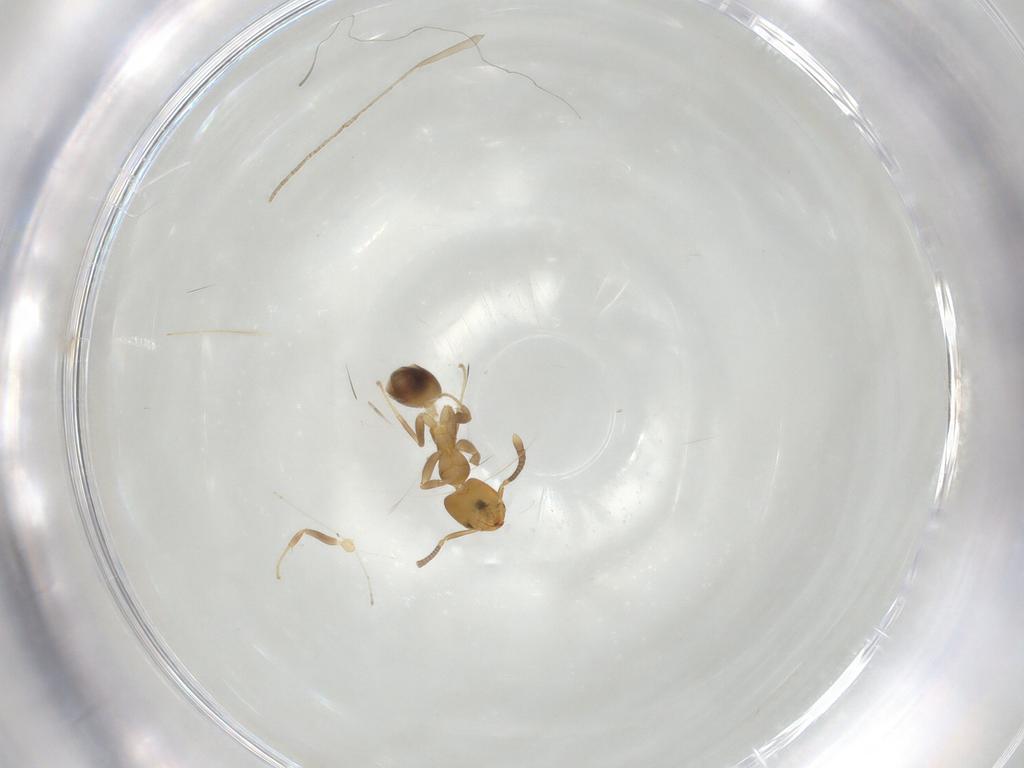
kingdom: Animalia
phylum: Arthropoda
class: Insecta
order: Hymenoptera
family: Formicidae
